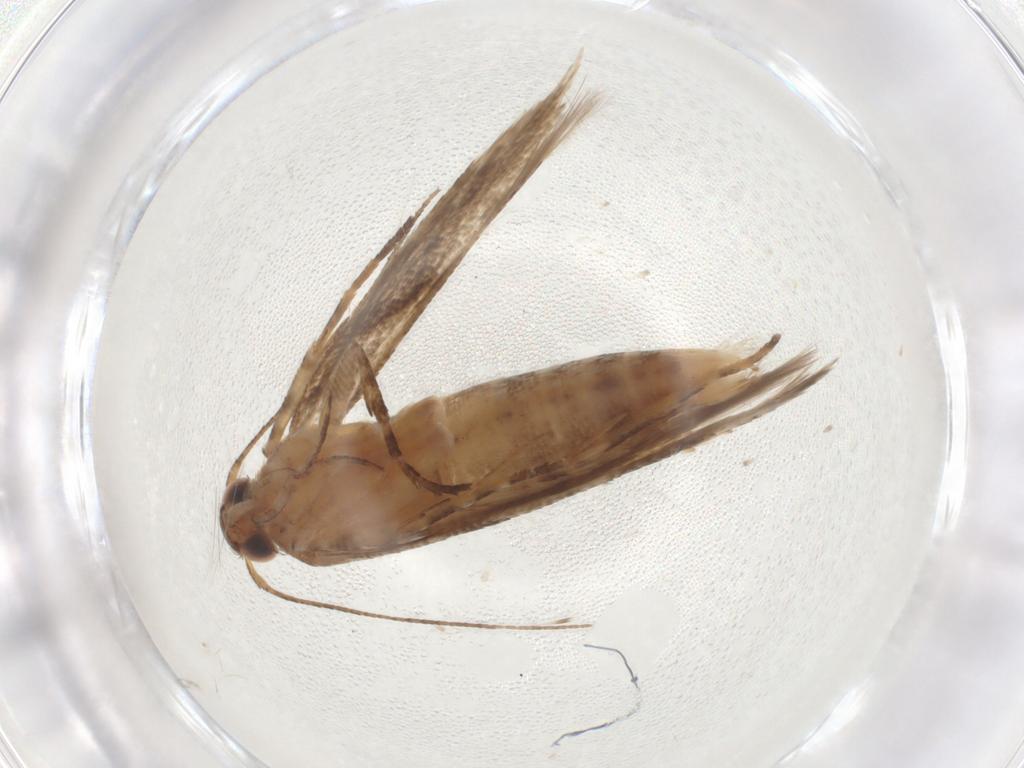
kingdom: Animalia
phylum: Arthropoda
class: Insecta
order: Lepidoptera
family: Gelechiidae
